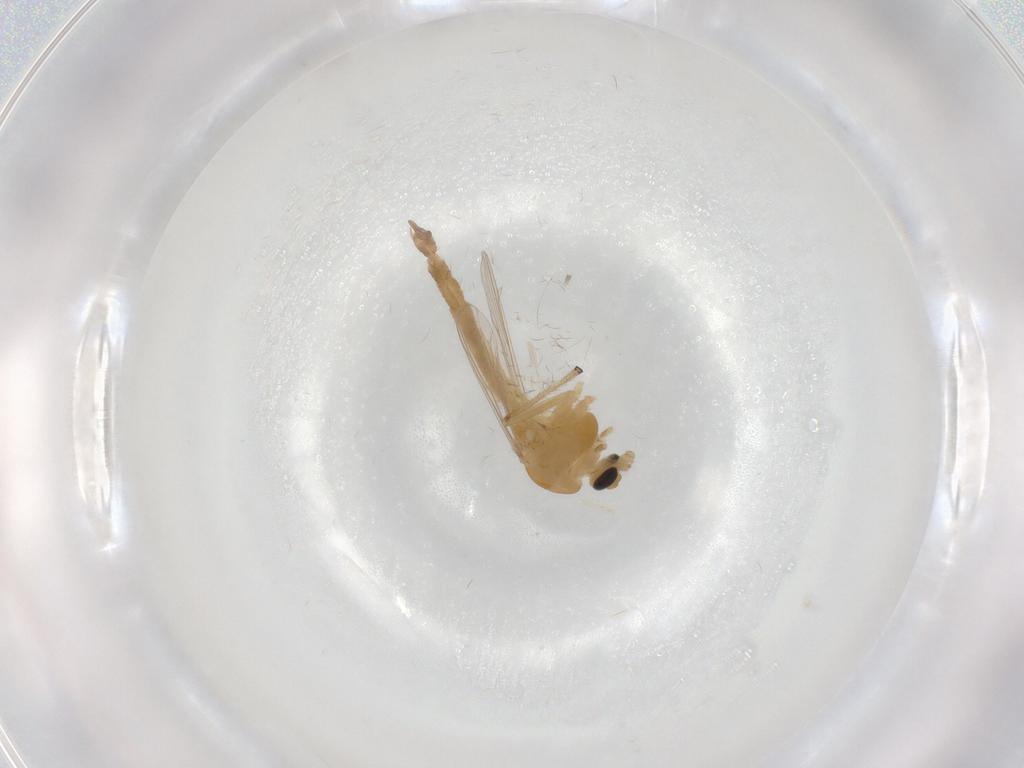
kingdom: Animalia
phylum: Arthropoda
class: Insecta
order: Diptera
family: Chironomidae
